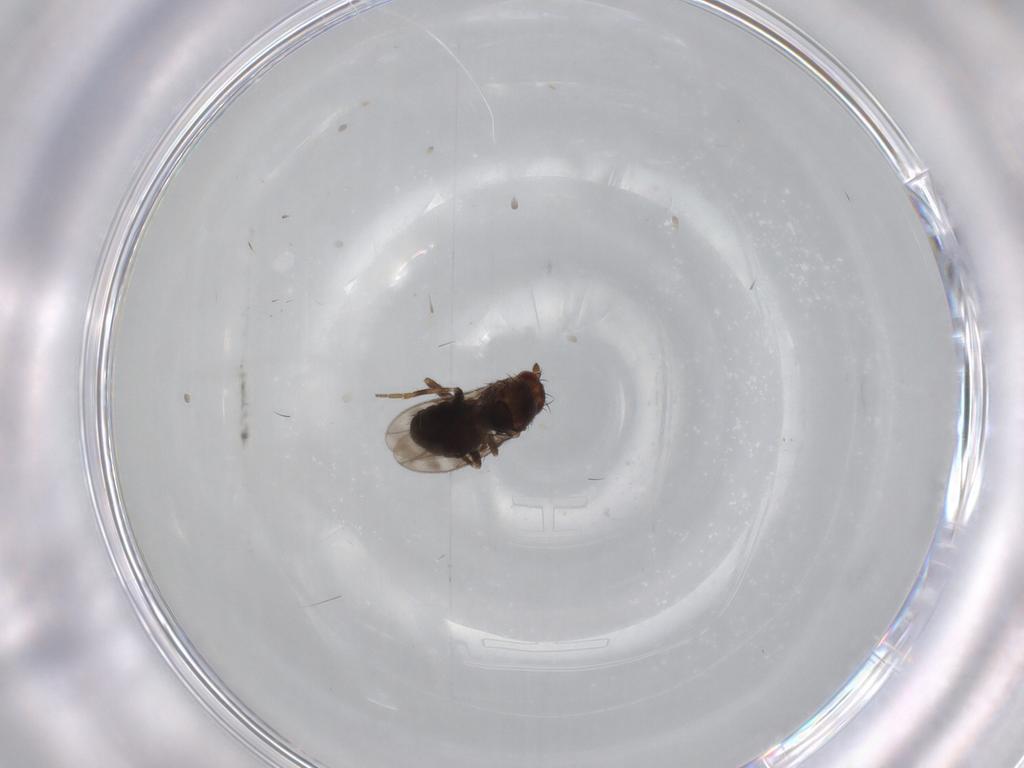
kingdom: Animalia
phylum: Arthropoda
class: Insecta
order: Diptera
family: Sphaeroceridae
